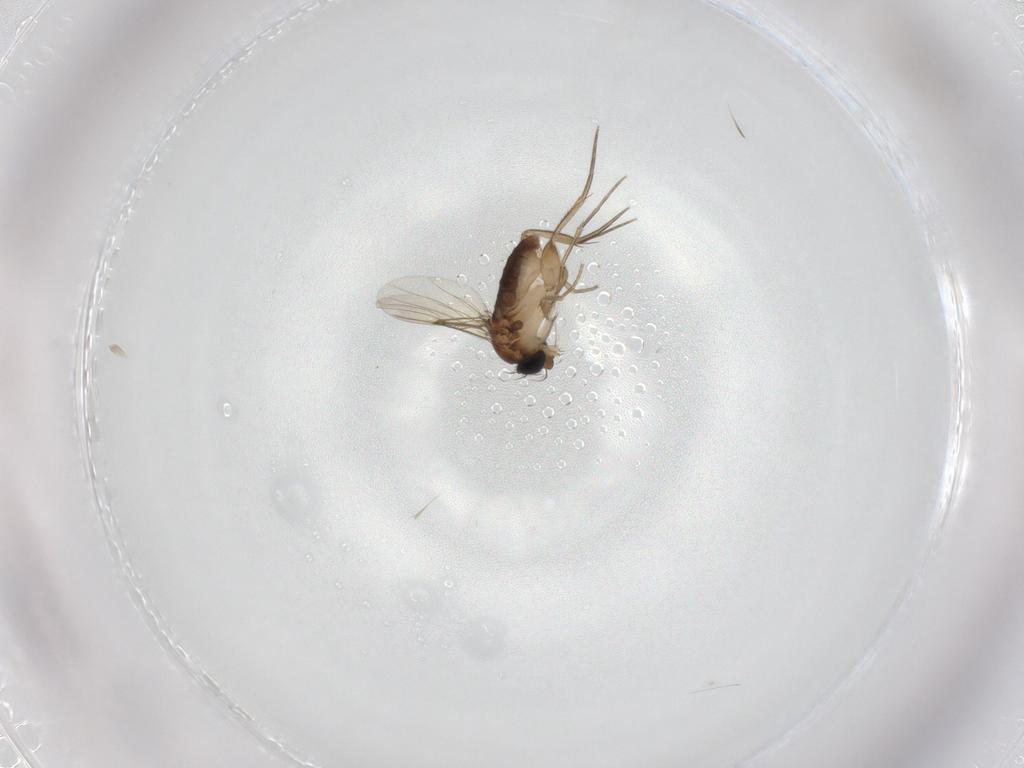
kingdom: Animalia
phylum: Arthropoda
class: Insecta
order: Diptera
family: Phoridae
